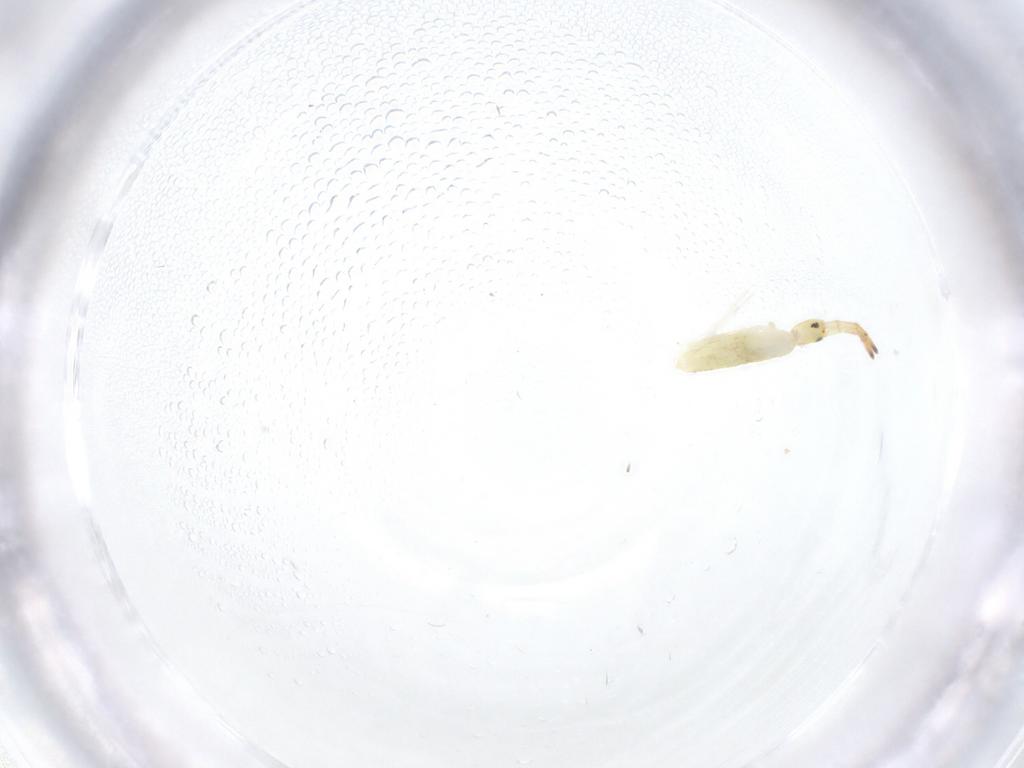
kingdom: Animalia
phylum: Arthropoda
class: Collembola
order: Entomobryomorpha
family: Entomobryidae
